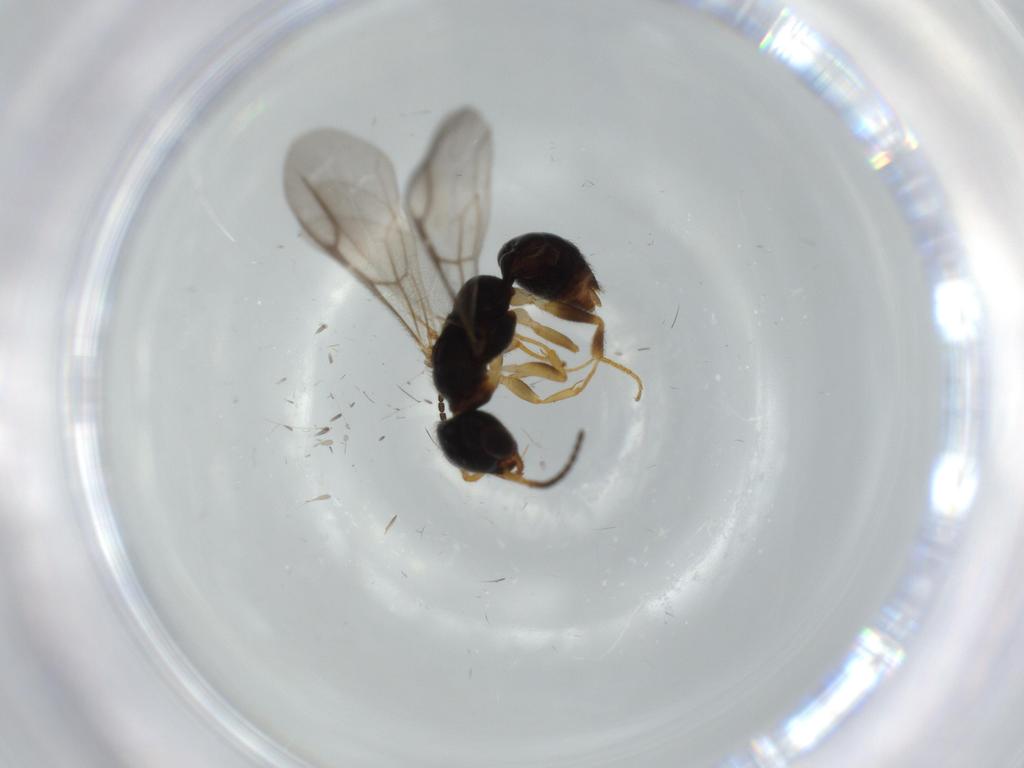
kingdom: Animalia
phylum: Arthropoda
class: Insecta
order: Hymenoptera
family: Bethylidae
